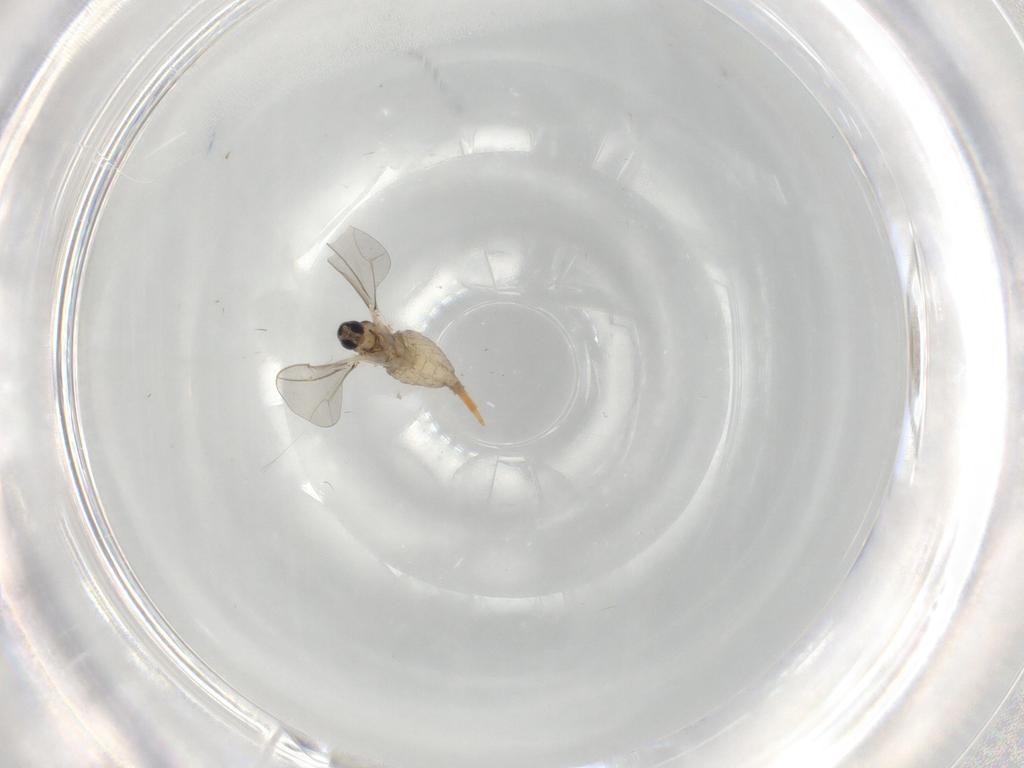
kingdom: Animalia
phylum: Arthropoda
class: Insecta
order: Diptera
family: Cecidomyiidae
